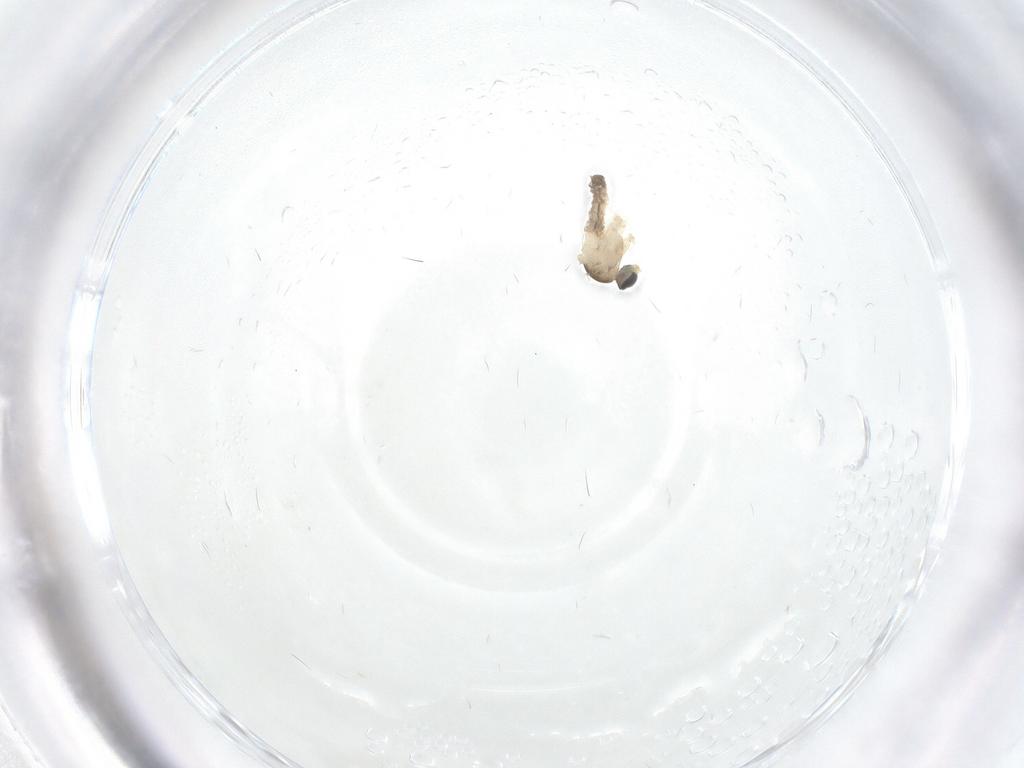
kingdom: Animalia
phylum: Arthropoda
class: Insecta
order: Diptera
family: Cecidomyiidae
